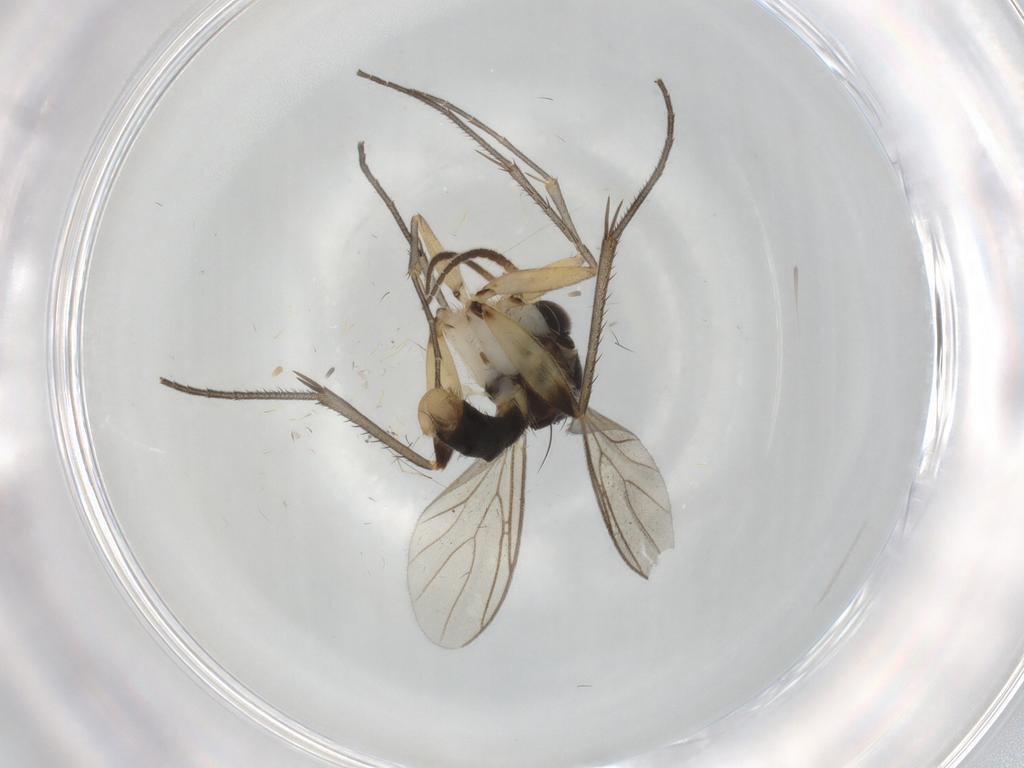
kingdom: Animalia
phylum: Arthropoda
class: Insecta
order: Diptera
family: Mycetophilidae
